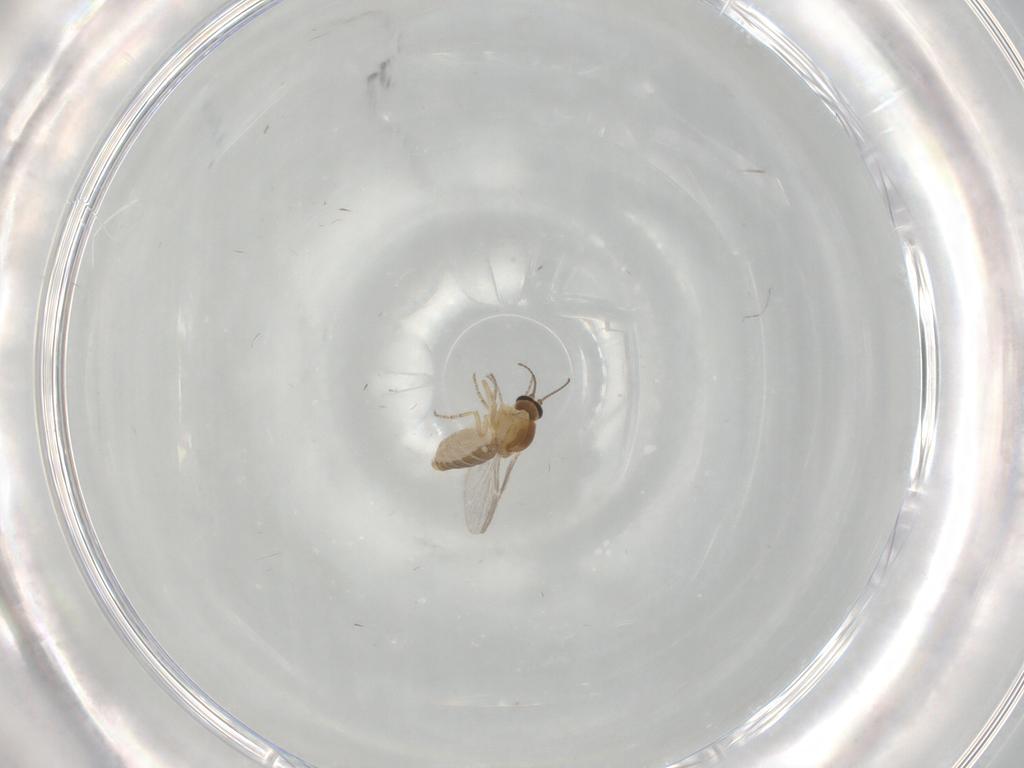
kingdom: Animalia
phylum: Arthropoda
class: Insecta
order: Diptera
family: Ceratopogonidae
